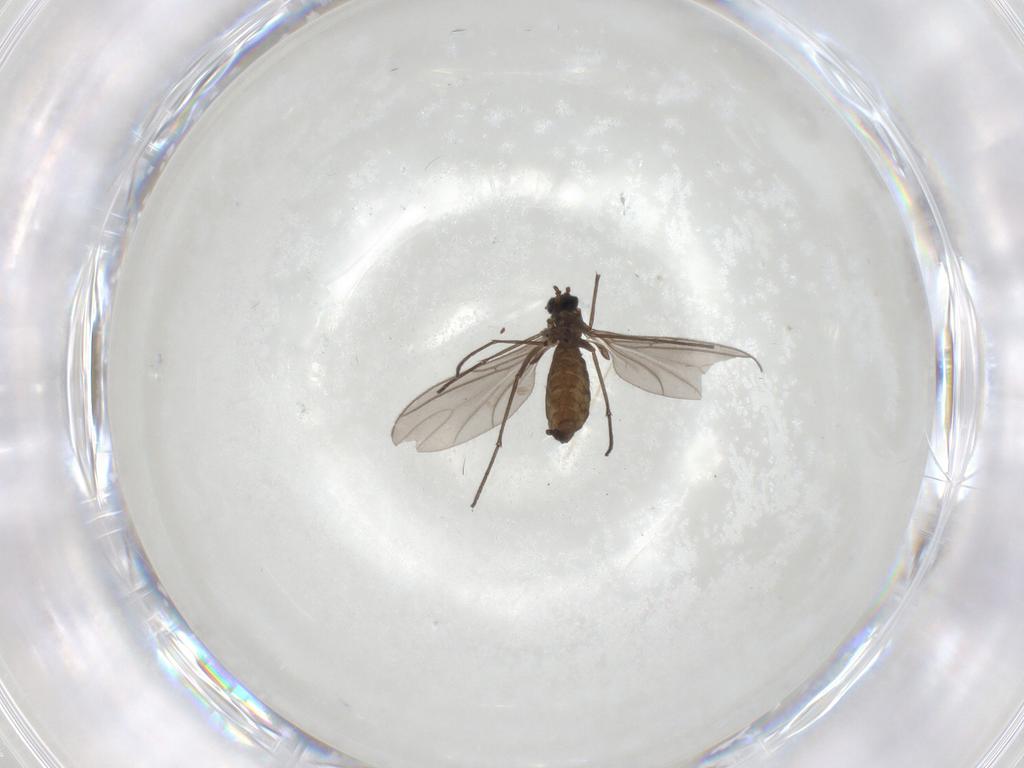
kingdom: Animalia
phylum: Arthropoda
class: Insecta
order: Diptera
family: Sciaridae
